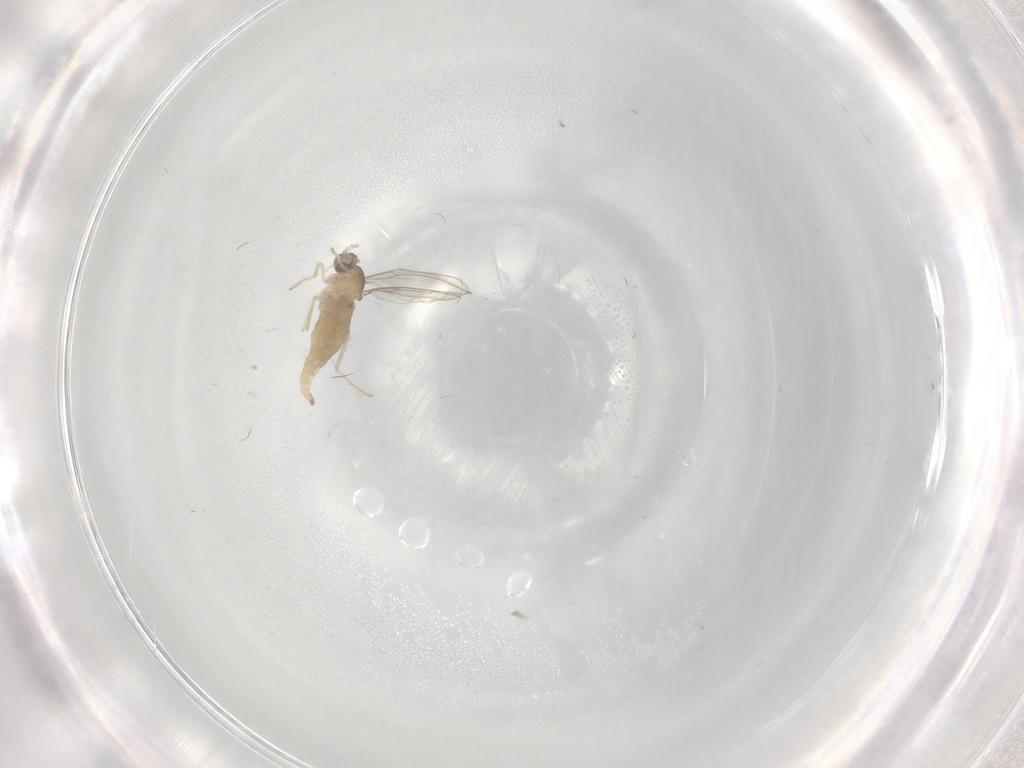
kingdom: Animalia
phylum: Arthropoda
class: Insecta
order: Diptera
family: Cecidomyiidae
